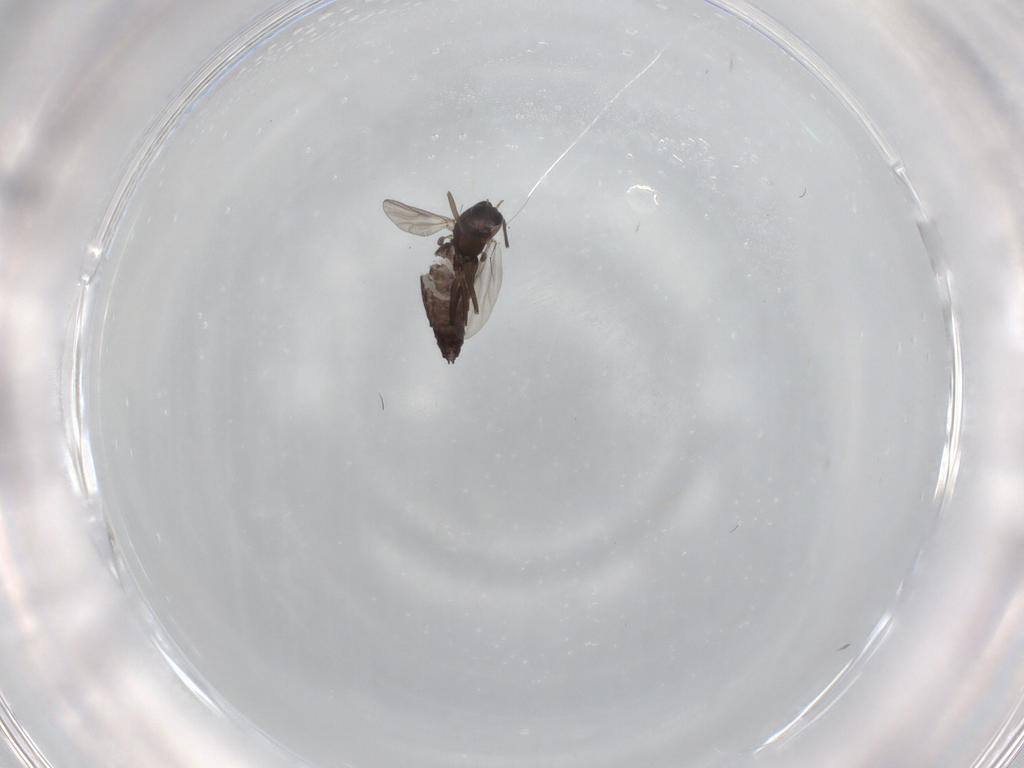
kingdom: Animalia
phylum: Arthropoda
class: Insecta
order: Diptera
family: Chironomidae
